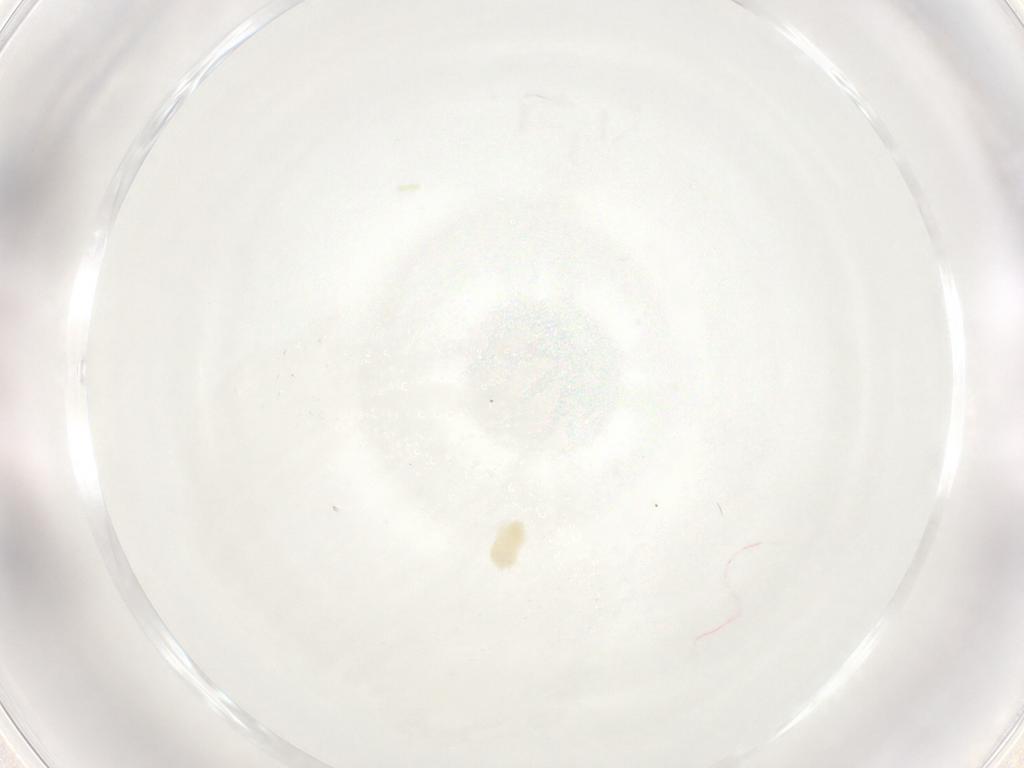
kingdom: Animalia
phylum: Arthropoda
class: Arachnida
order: Trombidiformes
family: Eupodidae
